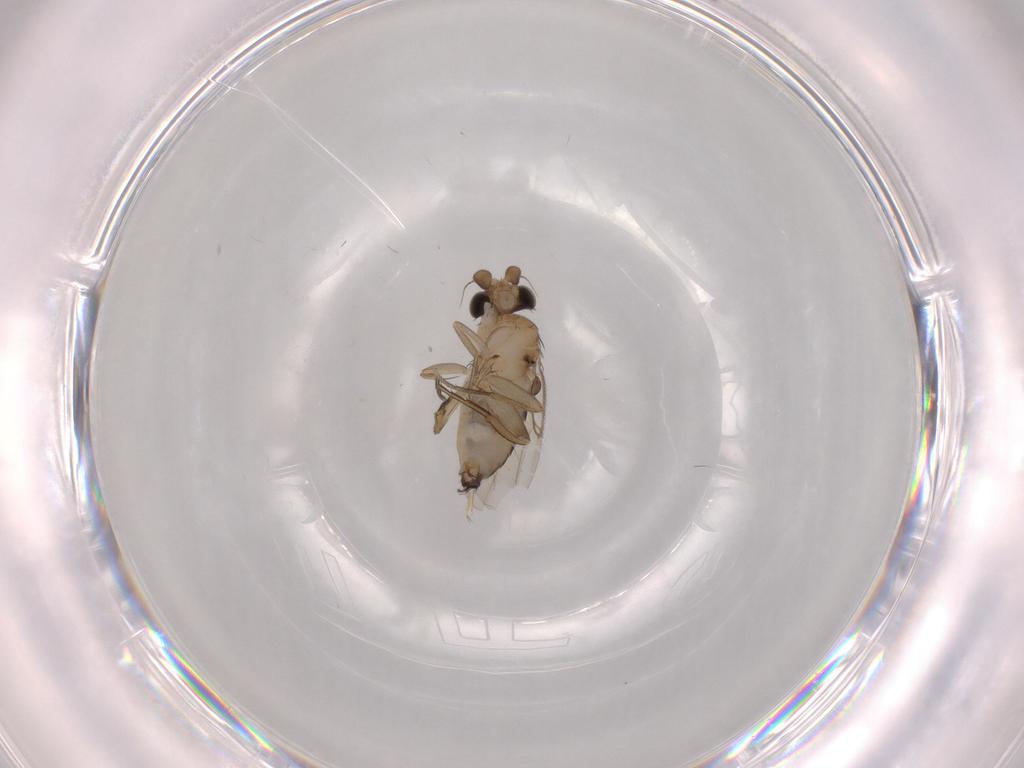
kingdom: Animalia
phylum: Arthropoda
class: Insecta
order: Diptera
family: Phoridae
